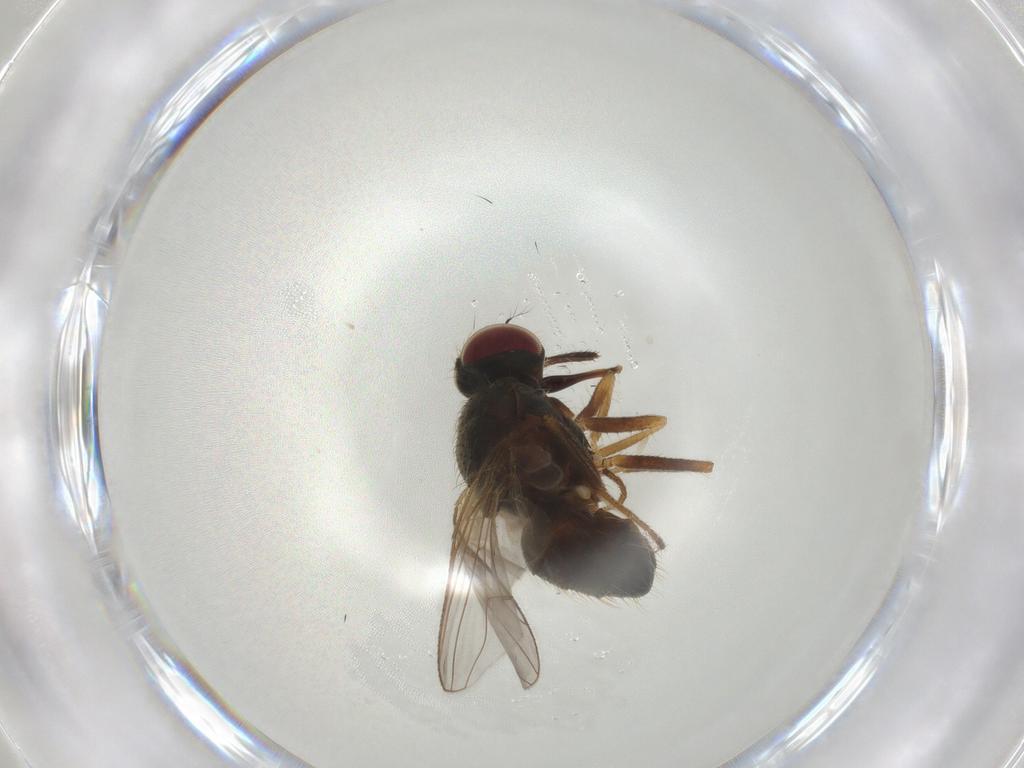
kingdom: Animalia
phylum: Arthropoda
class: Insecta
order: Diptera
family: Muscidae
